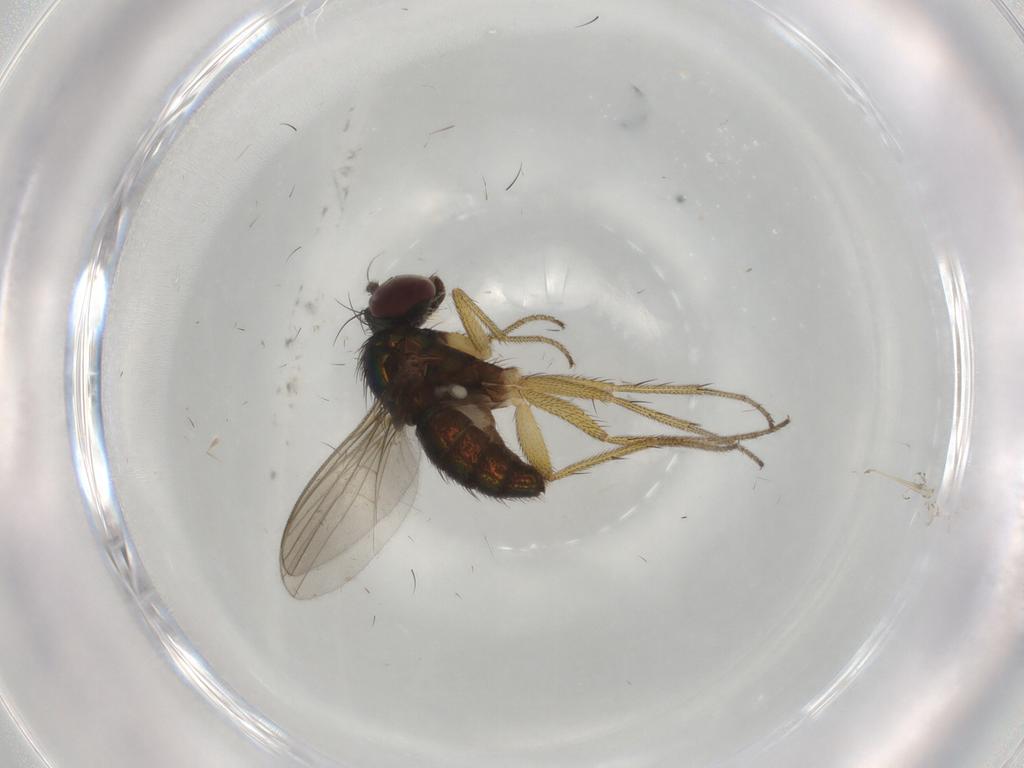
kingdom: Animalia
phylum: Arthropoda
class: Insecta
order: Diptera
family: Dolichopodidae
